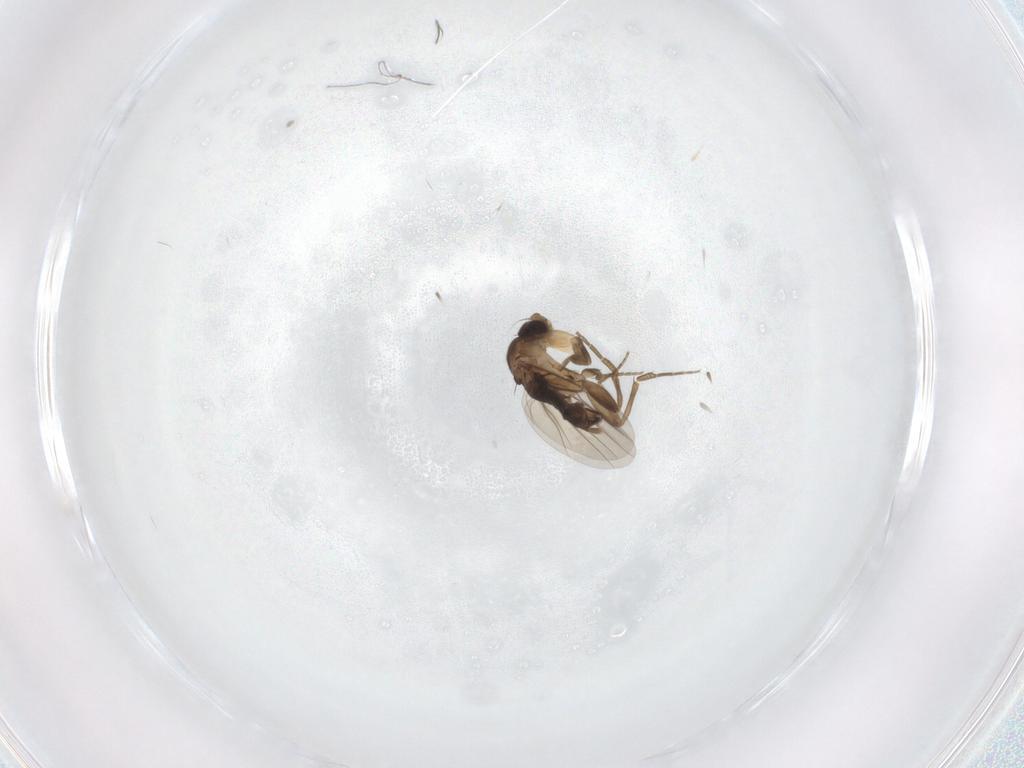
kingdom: Animalia
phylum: Arthropoda
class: Insecta
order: Diptera
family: Phoridae
